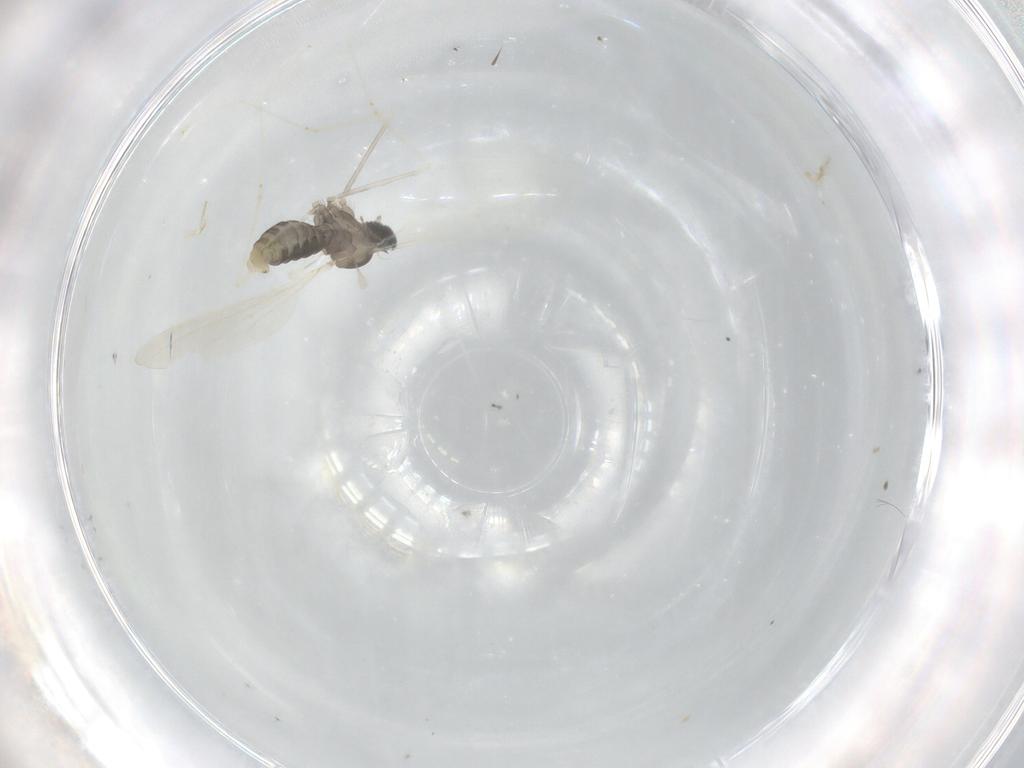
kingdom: Animalia
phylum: Arthropoda
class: Insecta
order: Diptera
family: Cecidomyiidae
